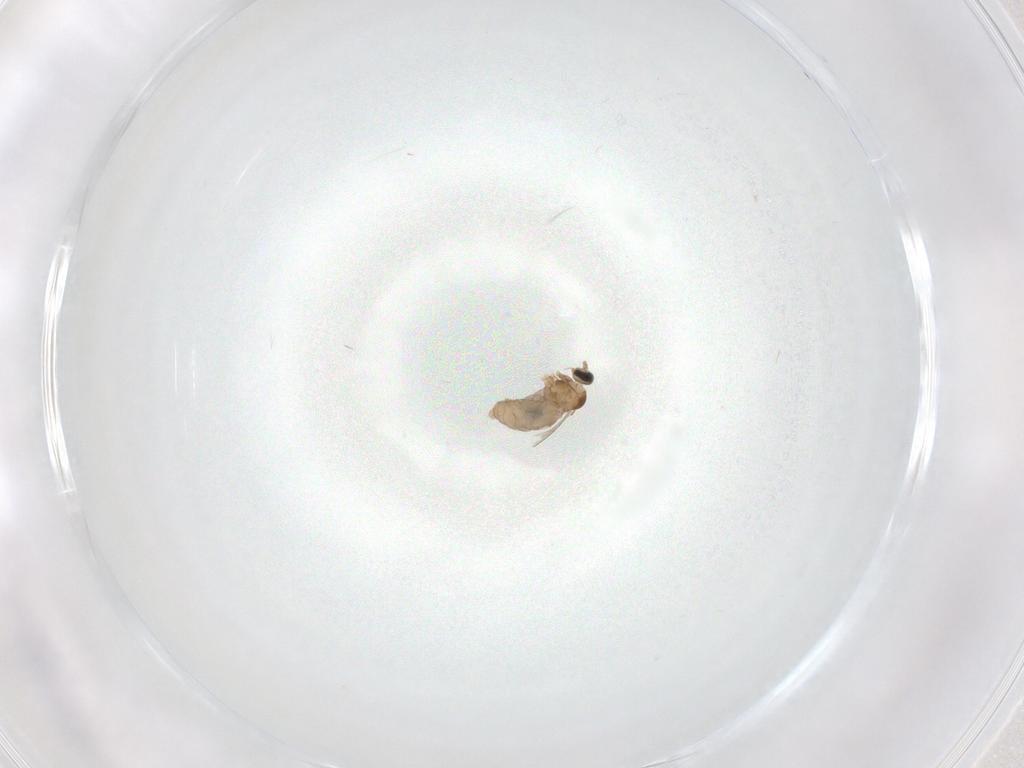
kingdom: Animalia
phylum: Arthropoda
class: Insecta
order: Diptera
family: Cecidomyiidae
